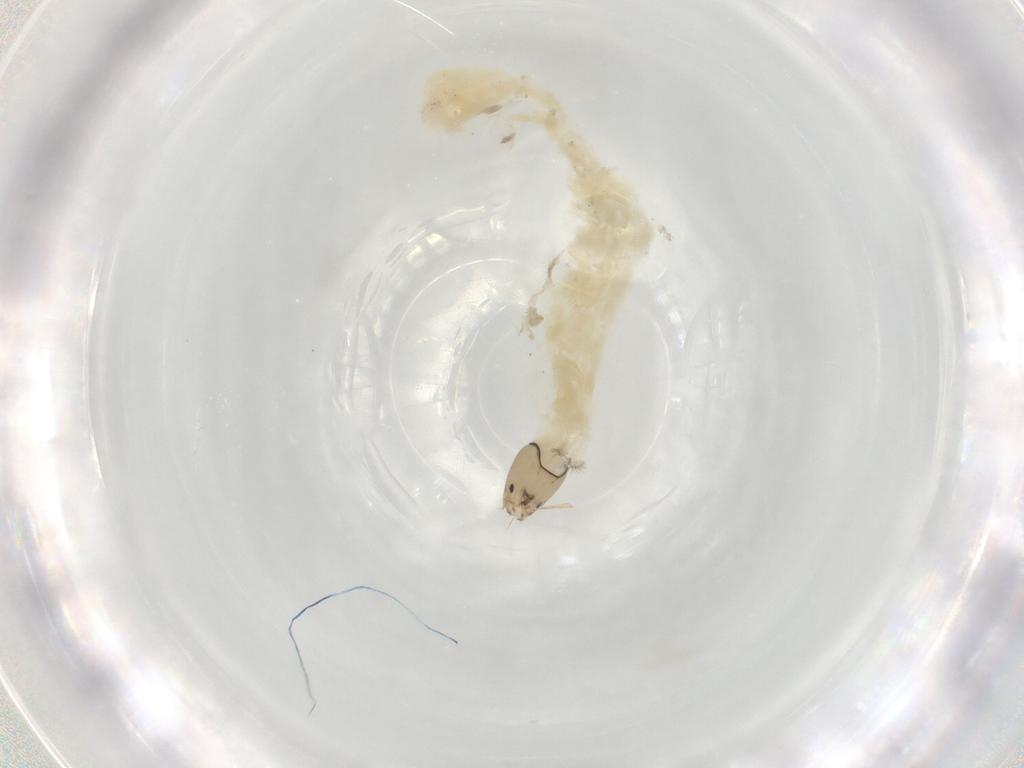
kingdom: Animalia
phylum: Arthropoda
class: Insecta
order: Diptera
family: Chironomidae
